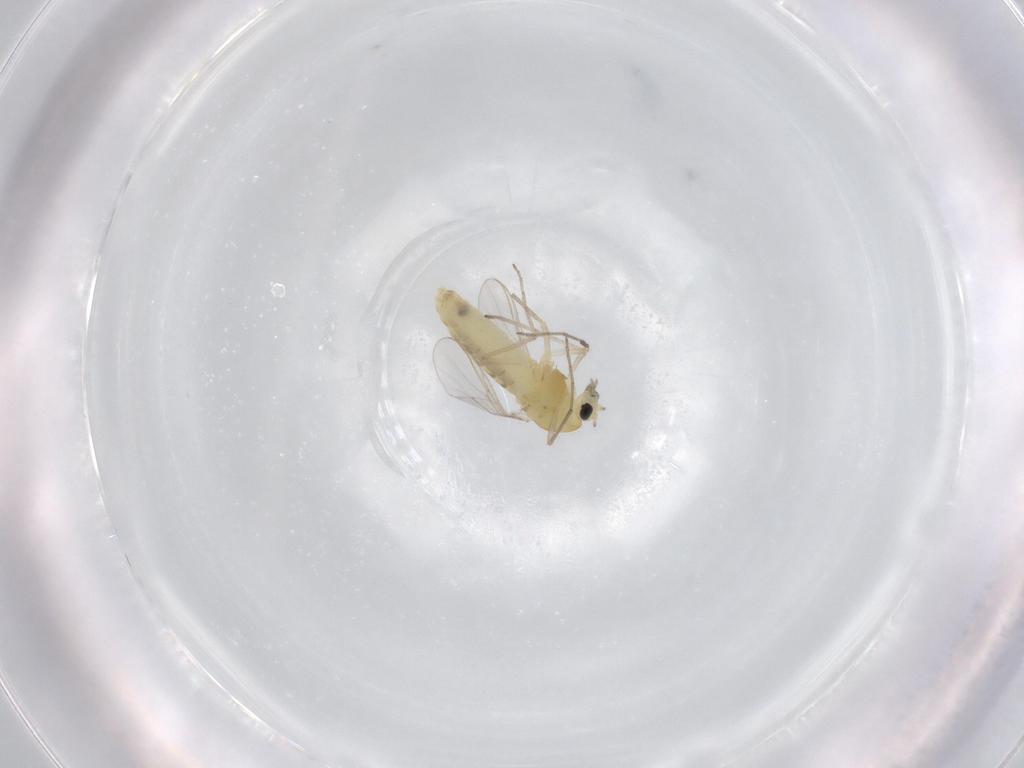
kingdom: Animalia
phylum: Arthropoda
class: Insecta
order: Diptera
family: Chironomidae
